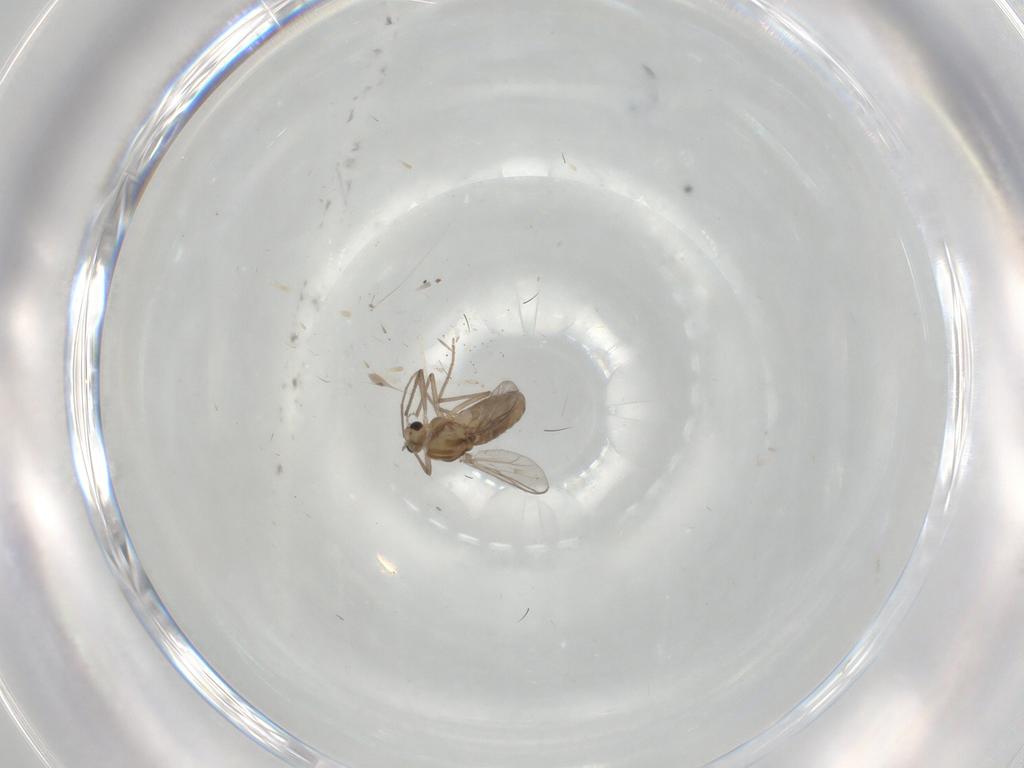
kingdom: Animalia
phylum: Arthropoda
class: Insecta
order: Diptera
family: Chironomidae
